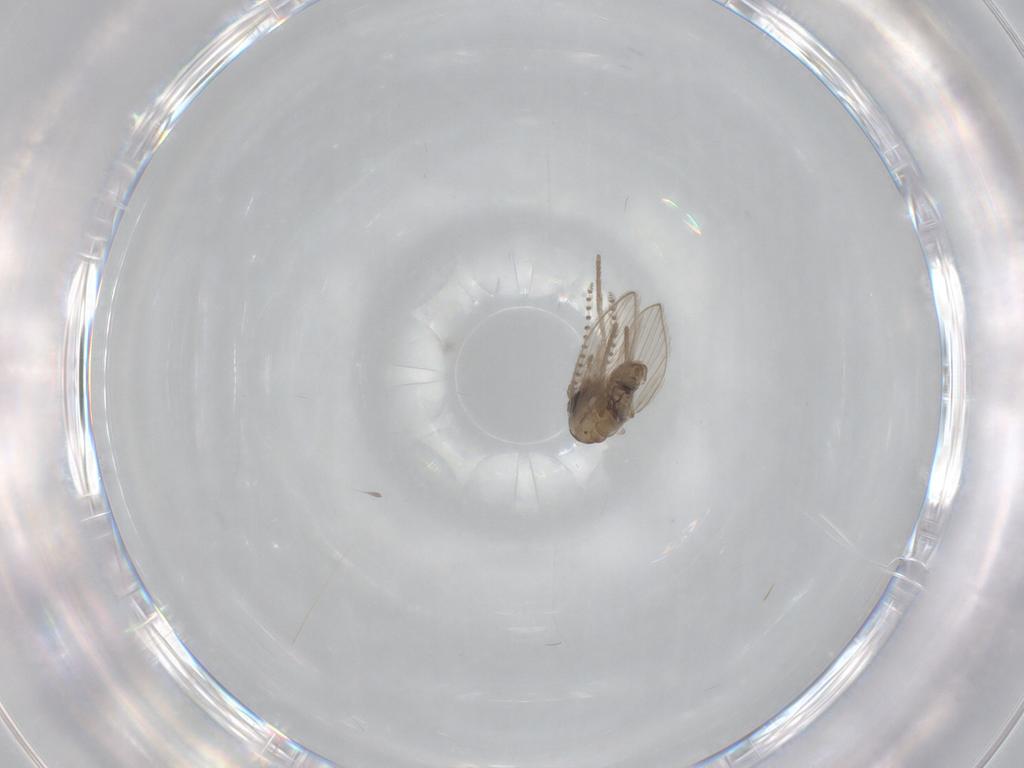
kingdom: Animalia
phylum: Arthropoda
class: Insecta
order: Diptera
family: Psychodidae
